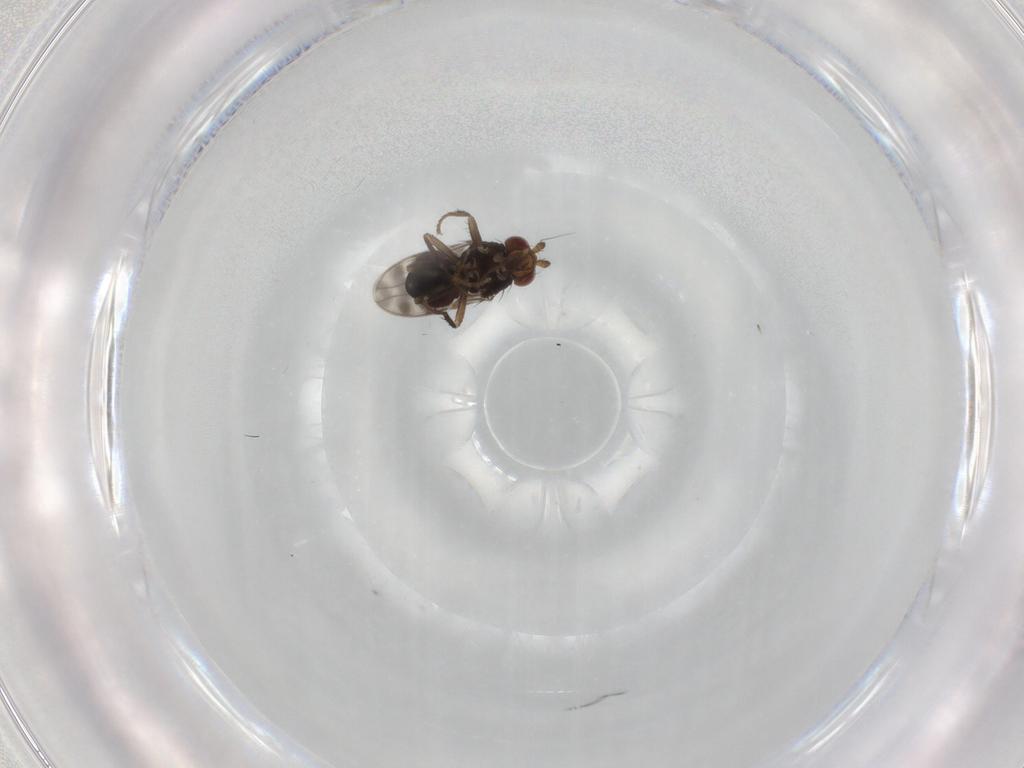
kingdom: Animalia
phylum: Arthropoda
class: Insecta
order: Diptera
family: Sphaeroceridae
